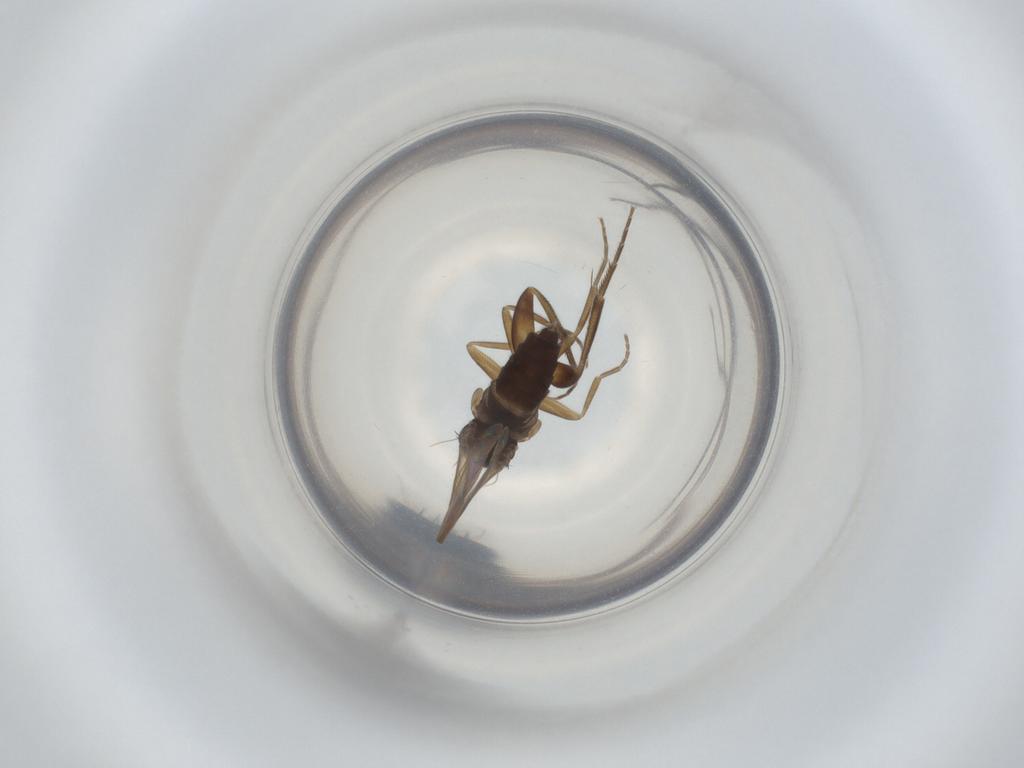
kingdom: Animalia
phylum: Arthropoda
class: Insecta
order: Diptera
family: Phoridae
